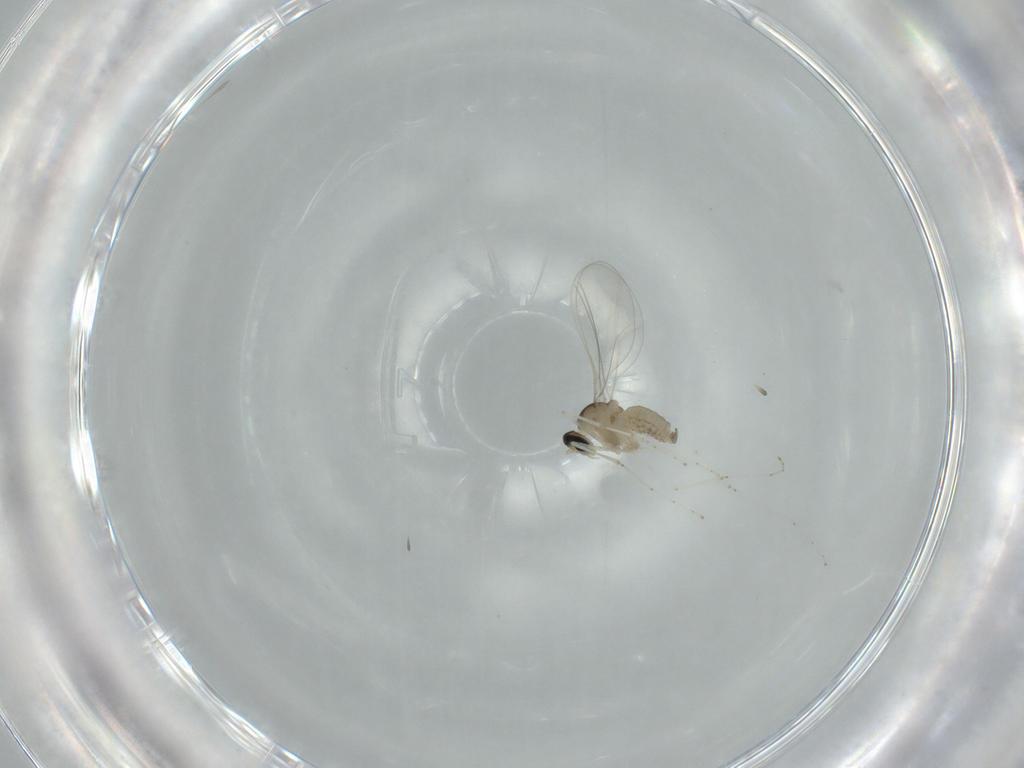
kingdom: Animalia
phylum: Arthropoda
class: Insecta
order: Diptera
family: Cecidomyiidae
